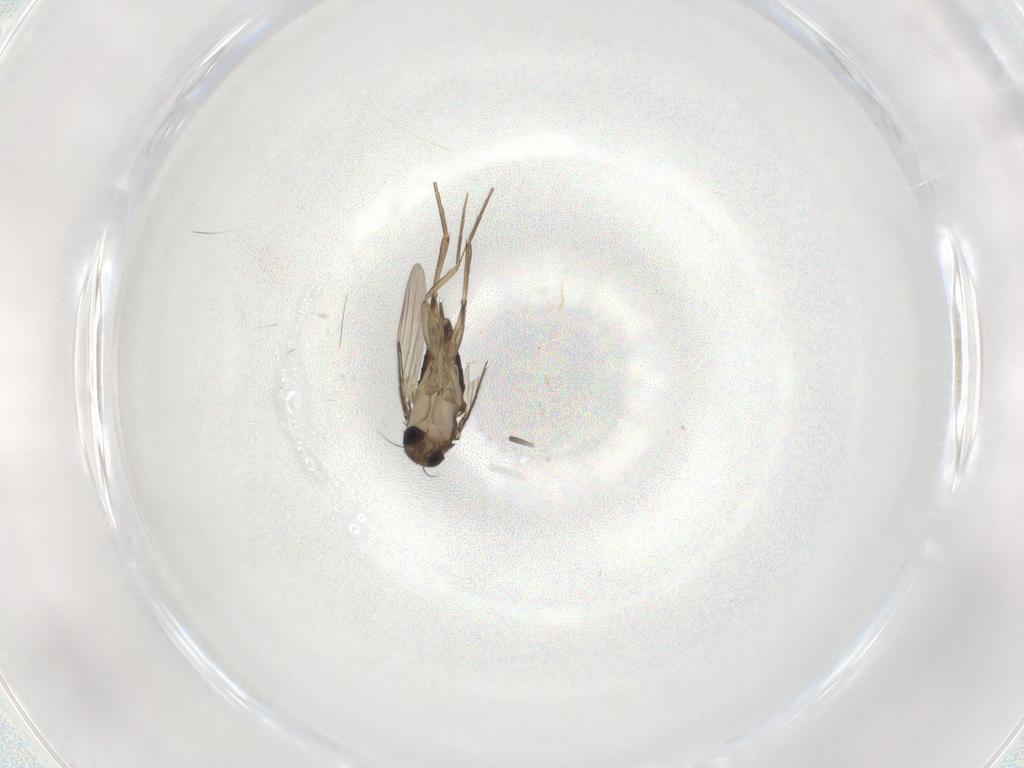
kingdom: Animalia
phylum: Arthropoda
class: Insecta
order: Diptera
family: Phoridae
